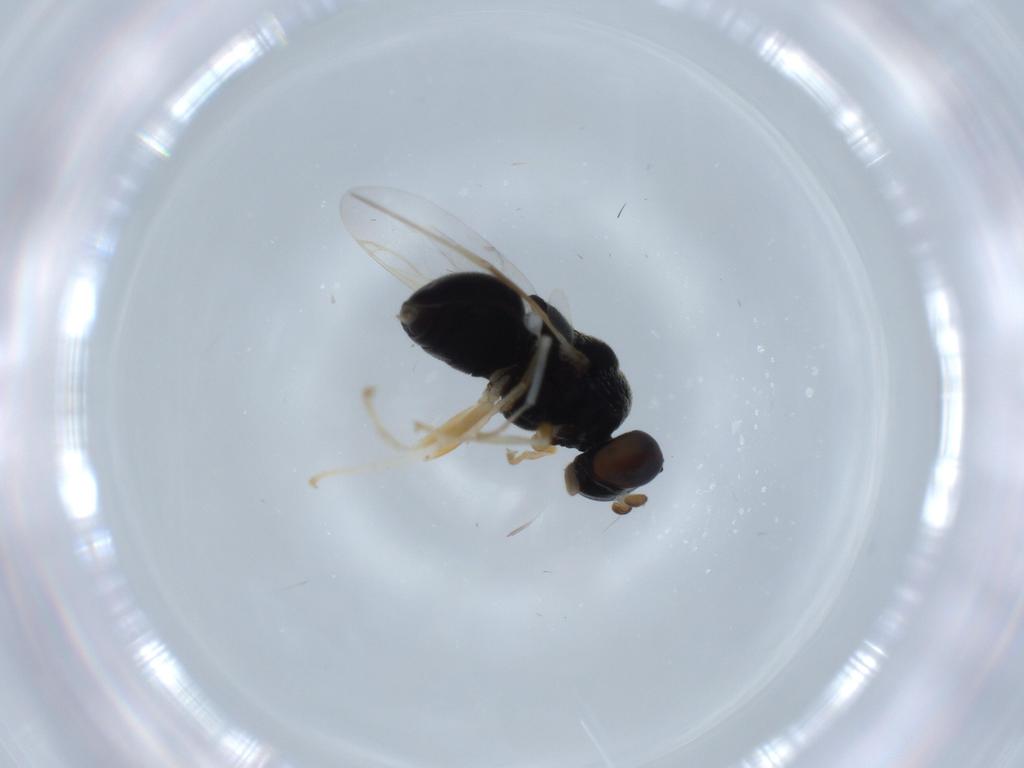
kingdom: Animalia
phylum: Arthropoda
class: Insecta
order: Diptera
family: Stratiomyidae
